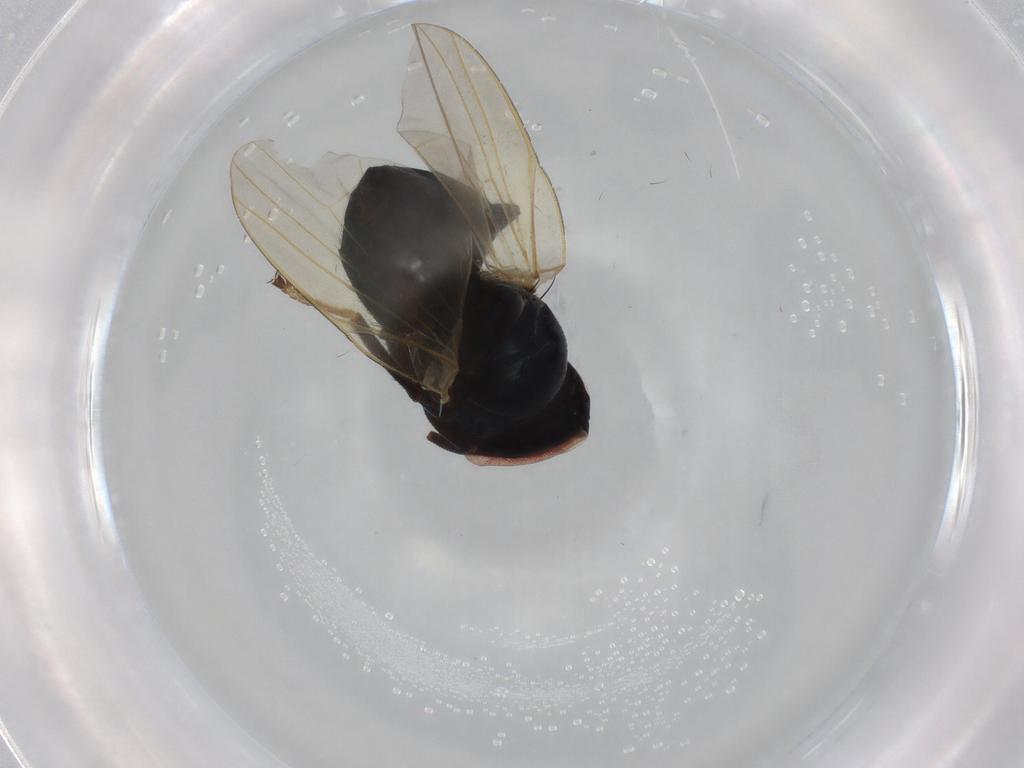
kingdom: Animalia
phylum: Arthropoda
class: Insecta
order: Diptera
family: Lonchaeidae
